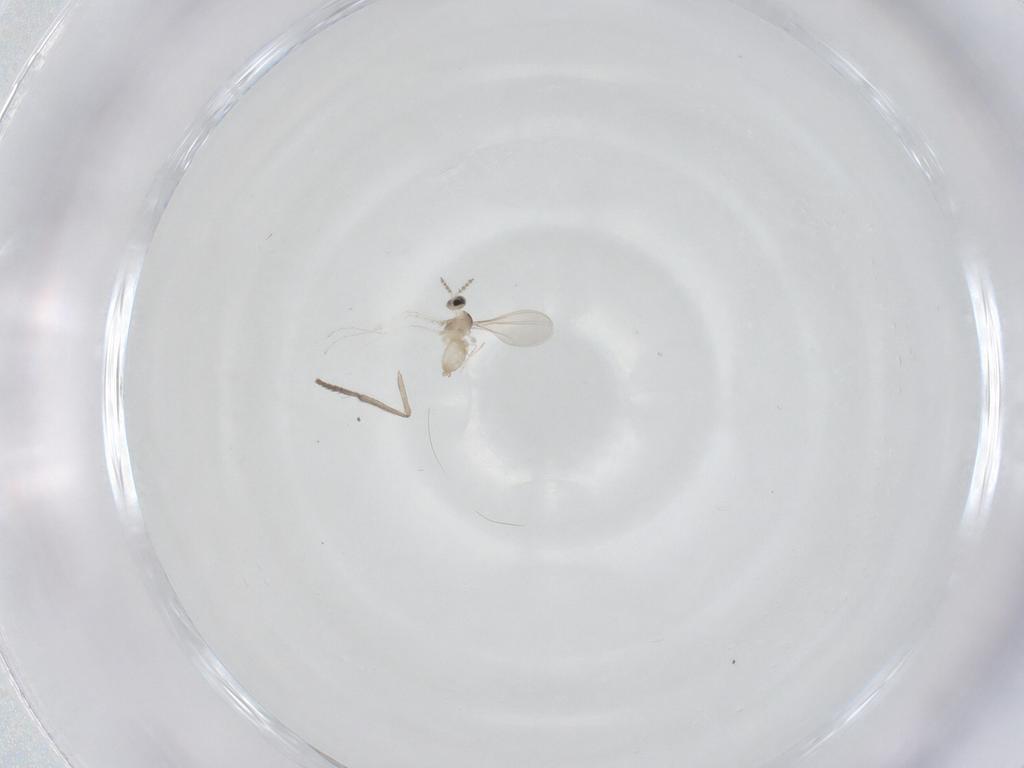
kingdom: Animalia
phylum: Arthropoda
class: Insecta
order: Diptera
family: Cecidomyiidae
